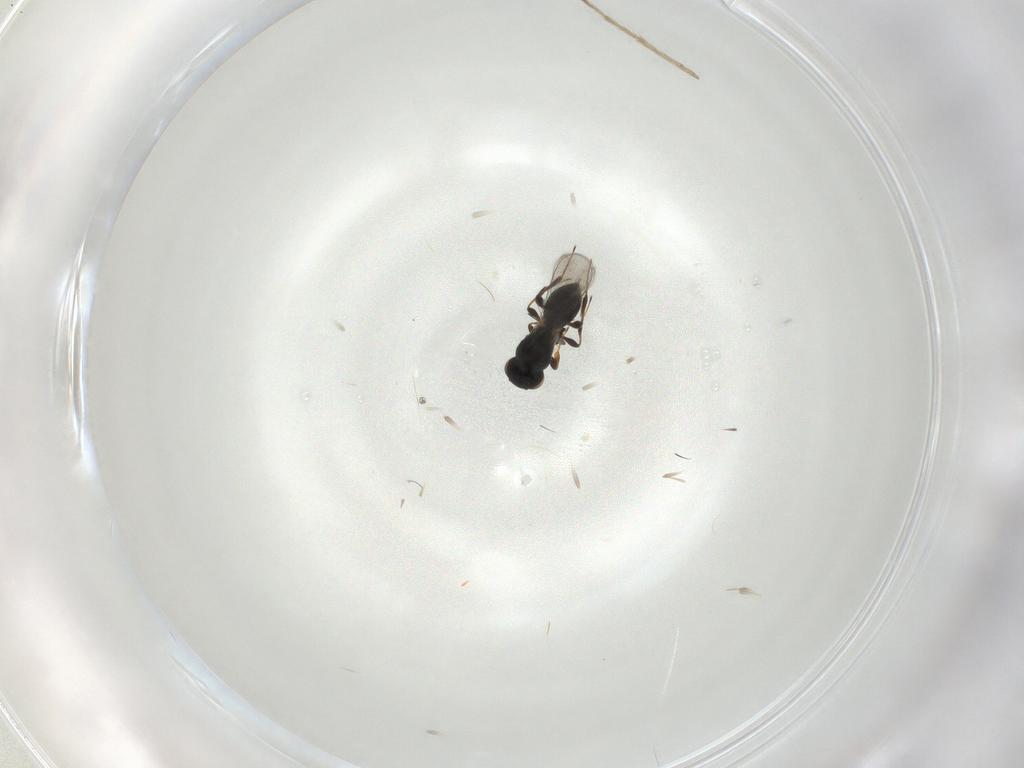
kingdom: Animalia
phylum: Arthropoda
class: Insecta
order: Hymenoptera
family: Platygastridae
